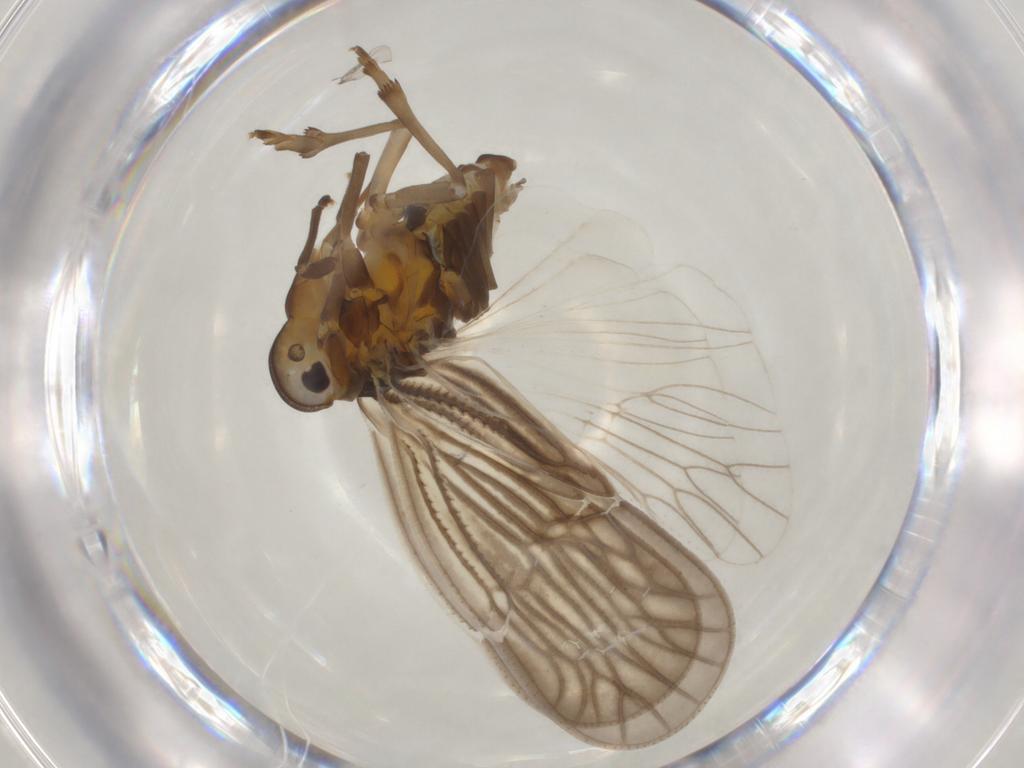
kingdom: Animalia
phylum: Arthropoda
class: Insecta
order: Hemiptera
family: Meenoplidae
